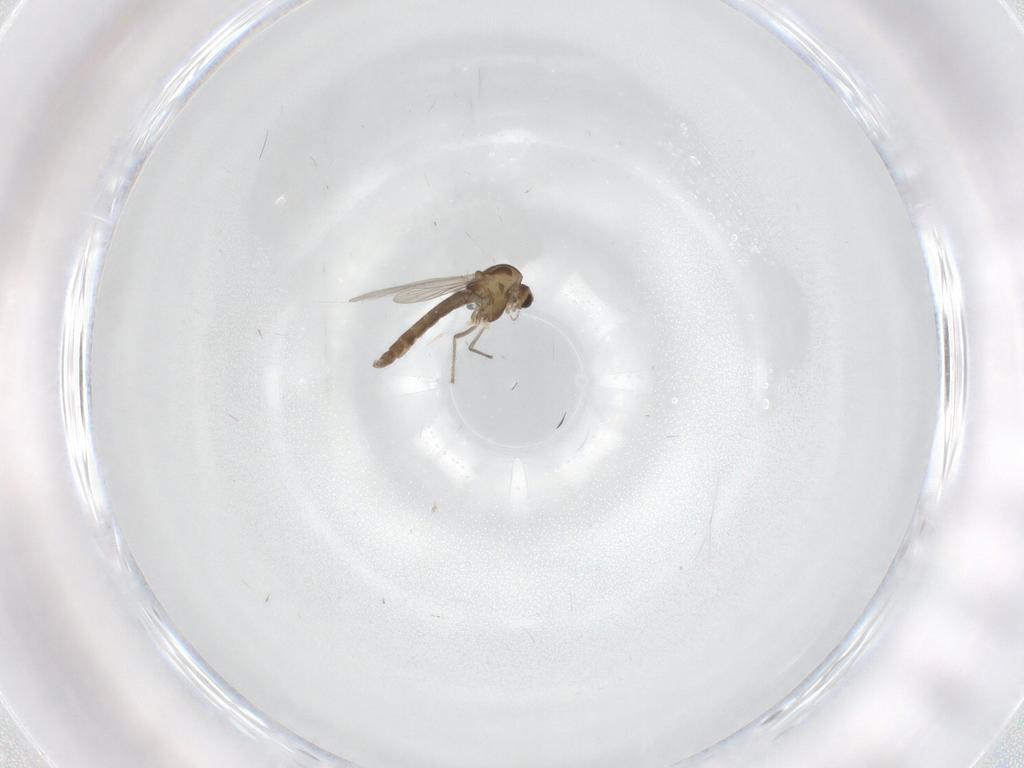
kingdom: Animalia
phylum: Arthropoda
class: Insecta
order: Diptera
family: Chironomidae
